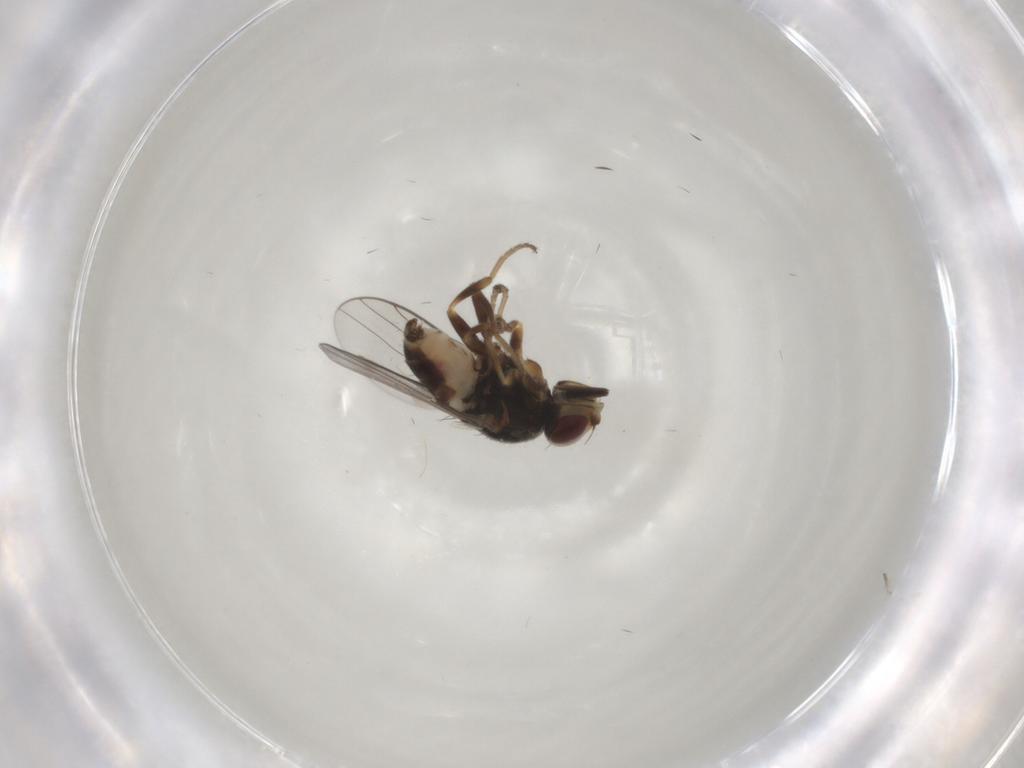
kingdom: Animalia
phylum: Arthropoda
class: Insecta
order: Diptera
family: Chloropidae
